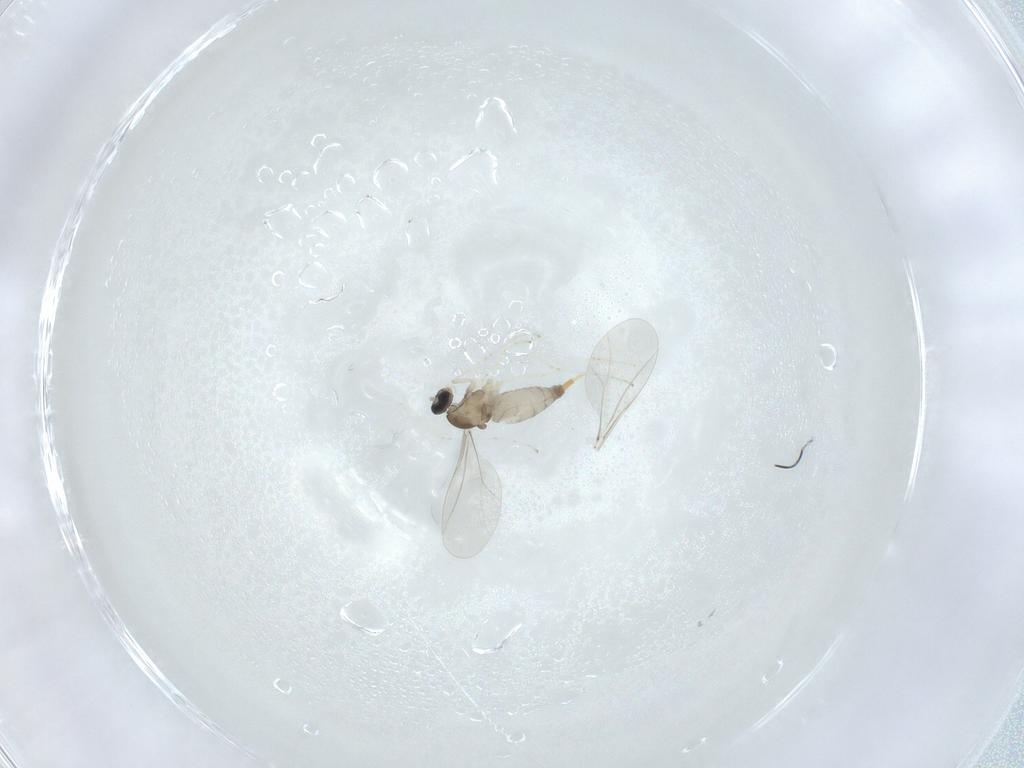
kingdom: Animalia
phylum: Arthropoda
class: Insecta
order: Diptera
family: Cecidomyiidae
